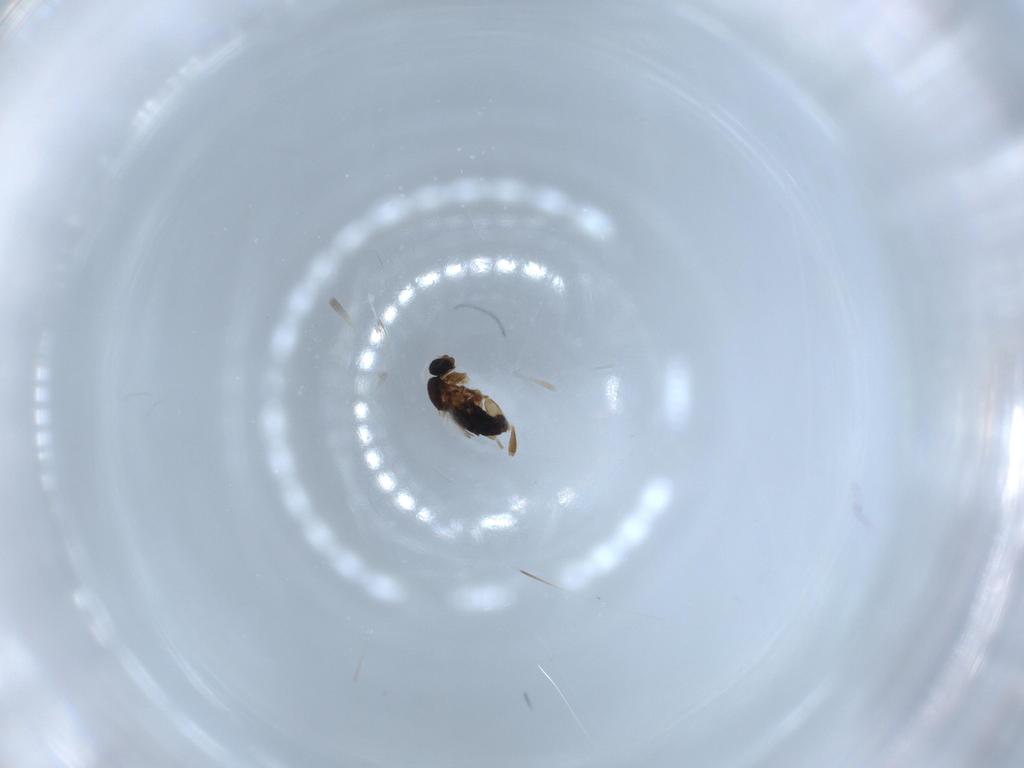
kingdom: Animalia
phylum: Arthropoda
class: Insecta
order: Diptera
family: Phoridae
